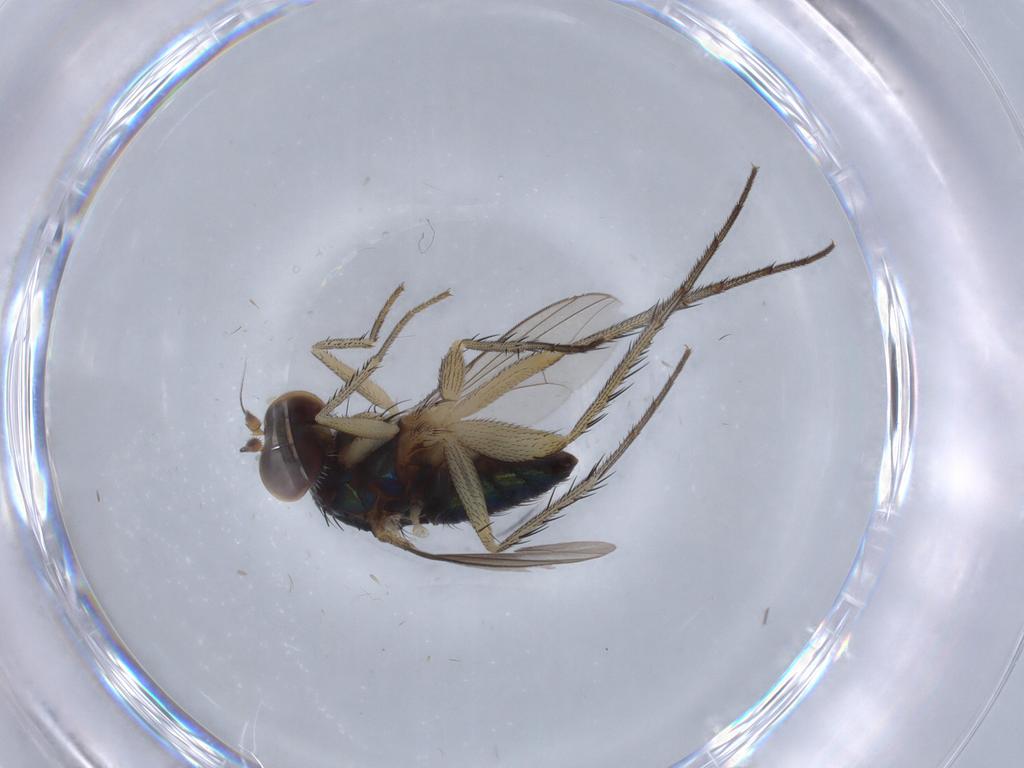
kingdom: Animalia
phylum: Arthropoda
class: Insecta
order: Diptera
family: Dolichopodidae
